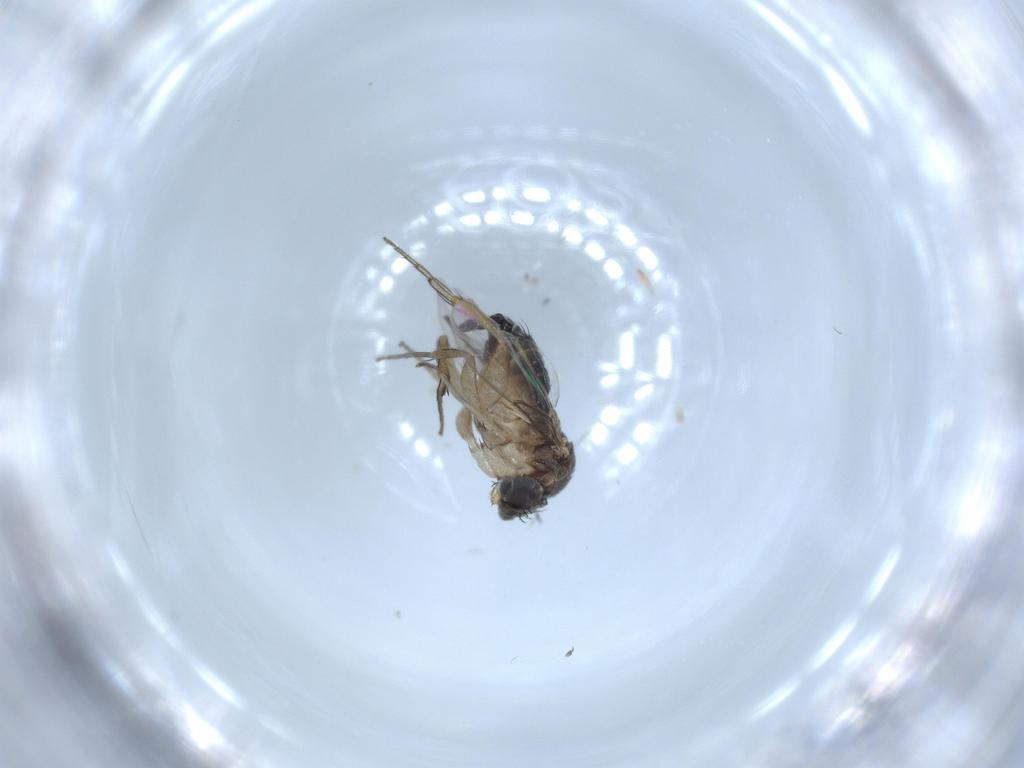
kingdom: Animalia
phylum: Arthropoda
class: Insecta
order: Diptera
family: Phoridae
